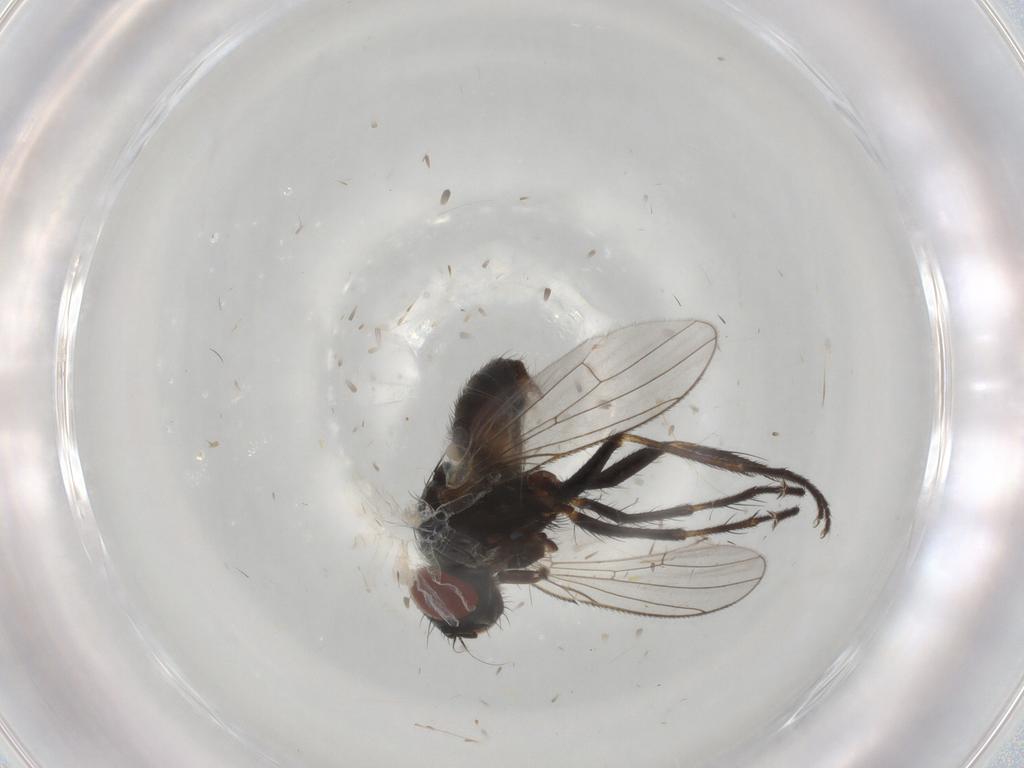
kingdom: Animalia
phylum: Arthropoda
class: Insecta
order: Diptera
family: Muscidae
